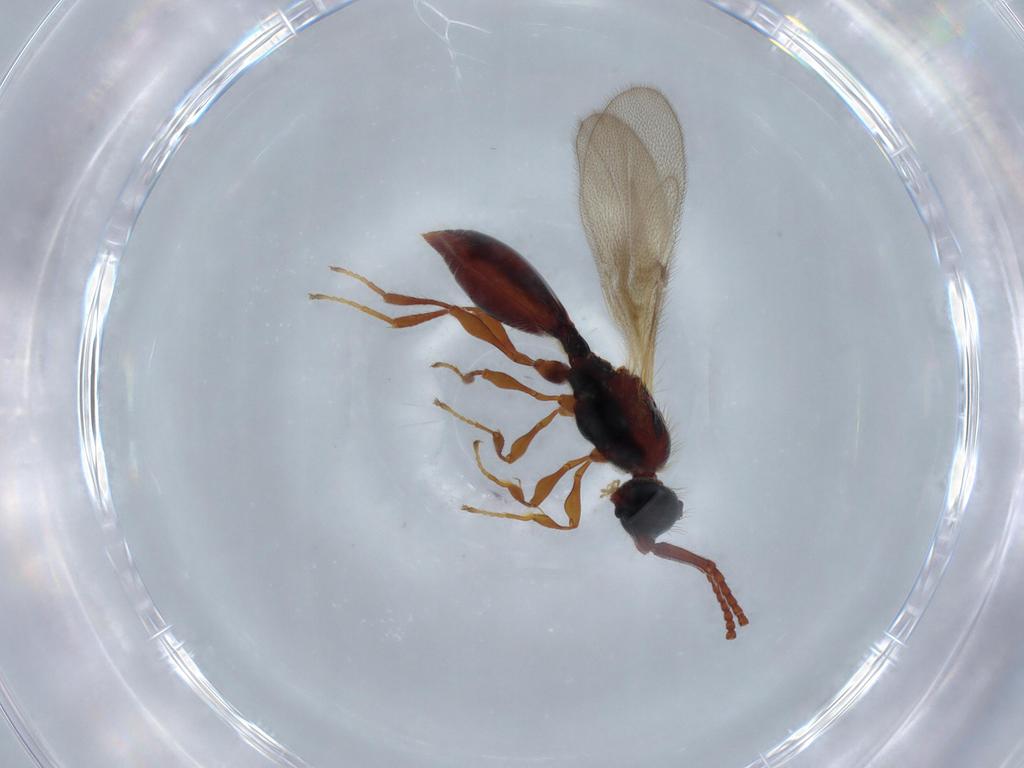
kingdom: Animalia
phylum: Arthropoda
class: Insecta
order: Hymenoptera
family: Diapriidae
